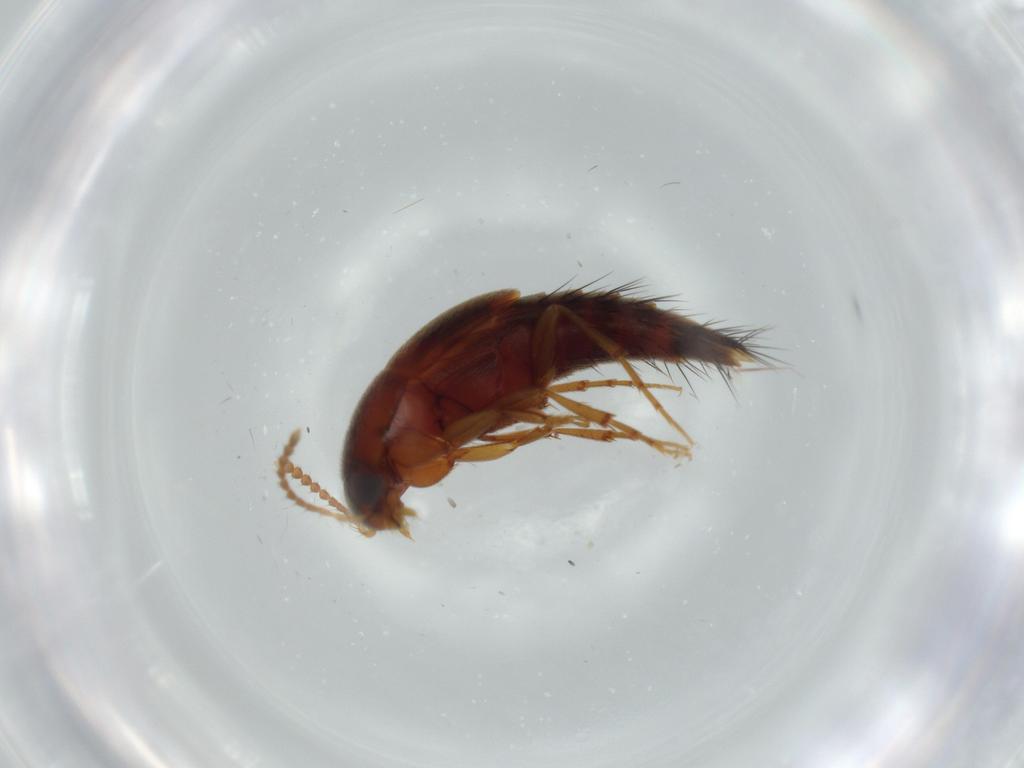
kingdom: Animalia
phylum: Arthropoda
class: Insecta
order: Coleoptera
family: Staphylinidae
